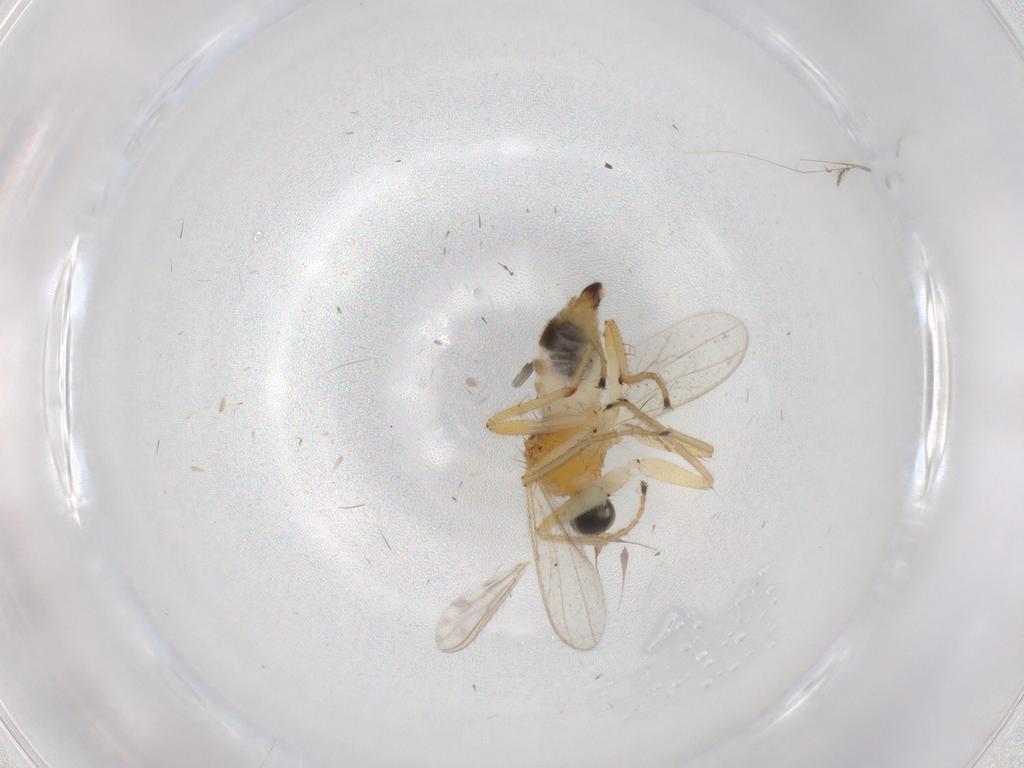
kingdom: Animalia
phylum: Arthropoda
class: Insecta
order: Diptera
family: Hybotidae
